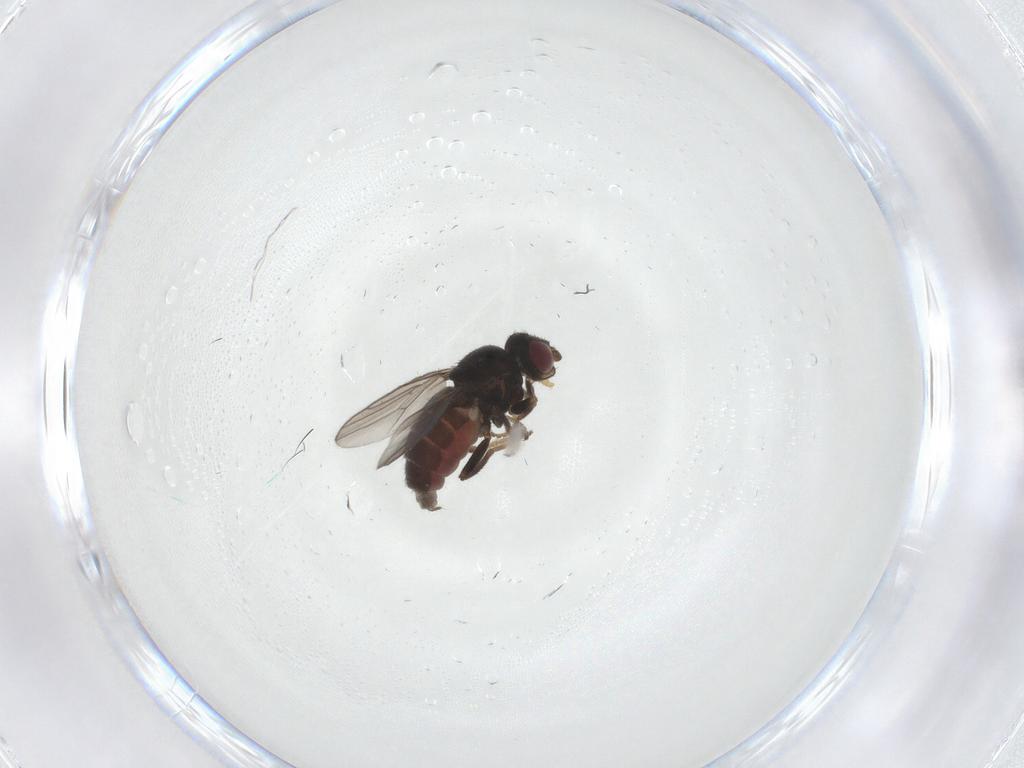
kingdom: Animalia
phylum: Arthropoda
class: Insecta
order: Diptera
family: Chloropidae
